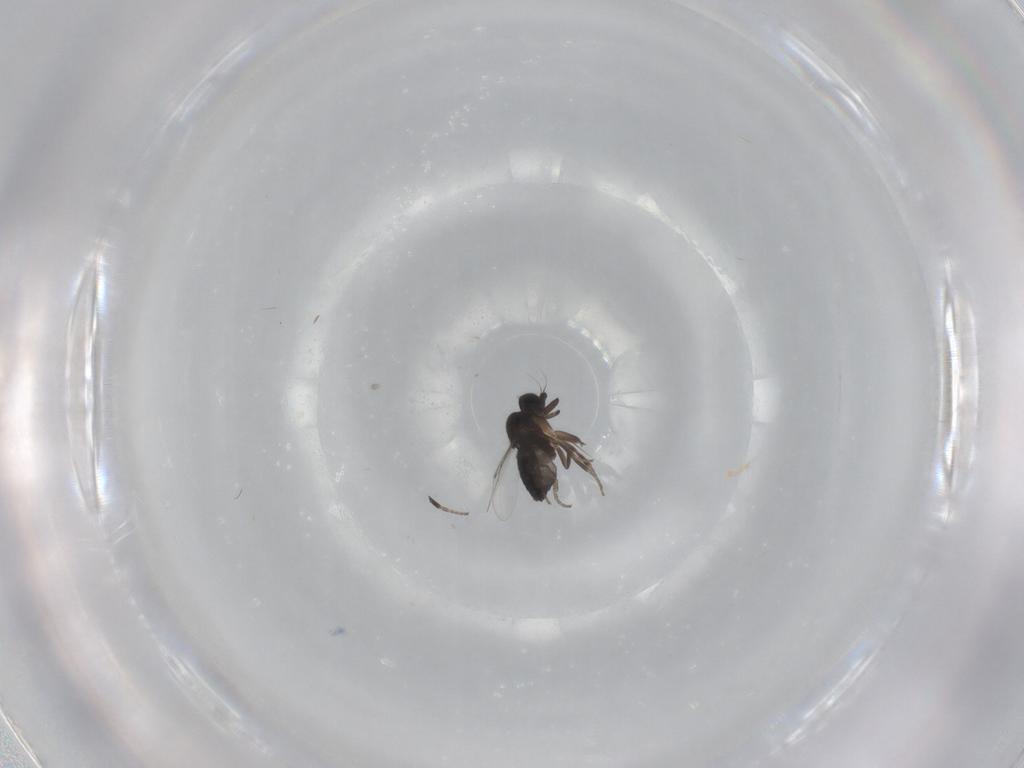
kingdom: Animalia
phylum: Arthropoda
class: Insecta
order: Diptera
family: Phoridae
